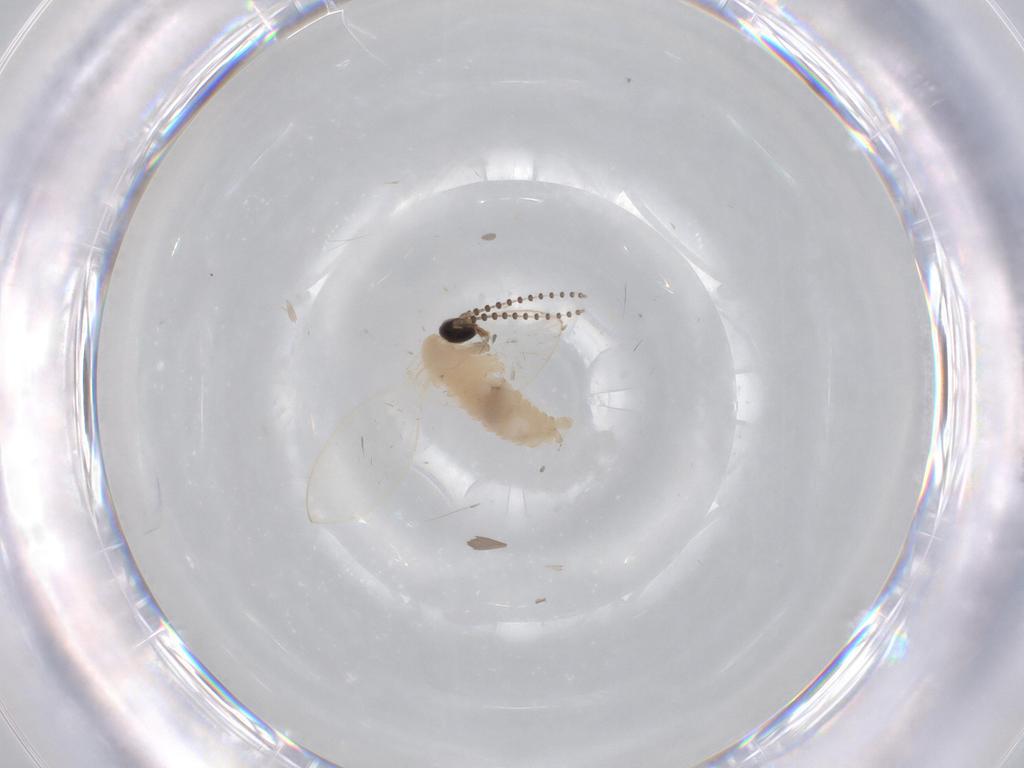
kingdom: Animalia
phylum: Arthropoda
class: Insecta
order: Diptera
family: Psychodidae
